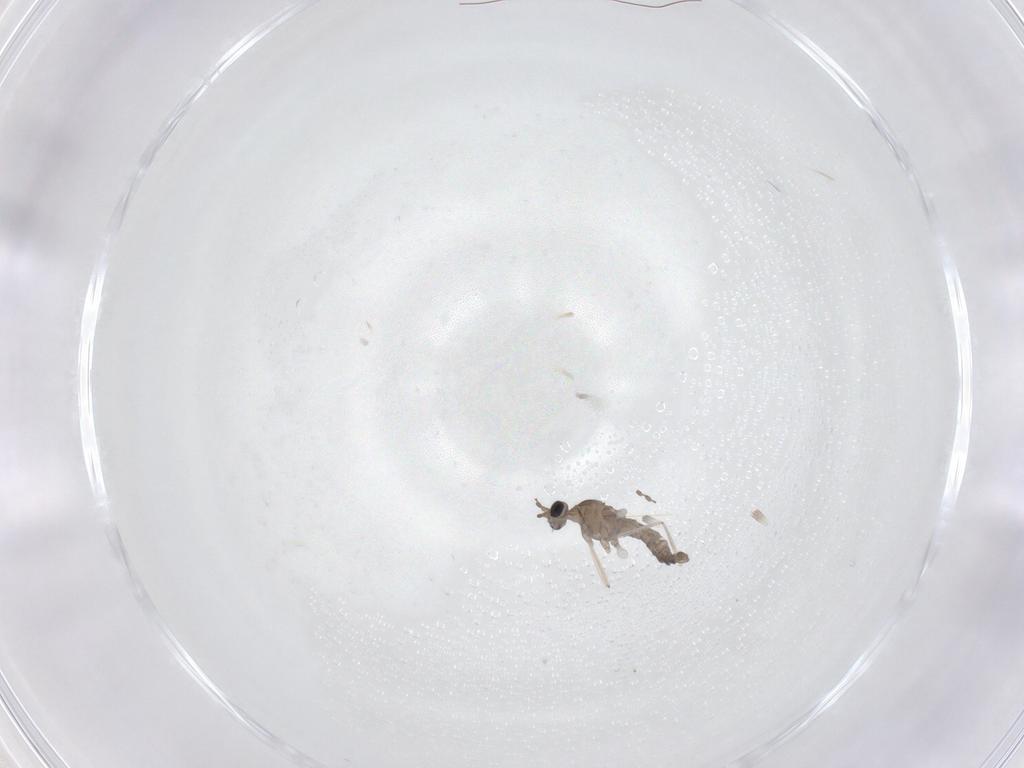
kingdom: Animalia
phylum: Arthropoda
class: Insecta
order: Diptera
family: Cecidomyiidae
